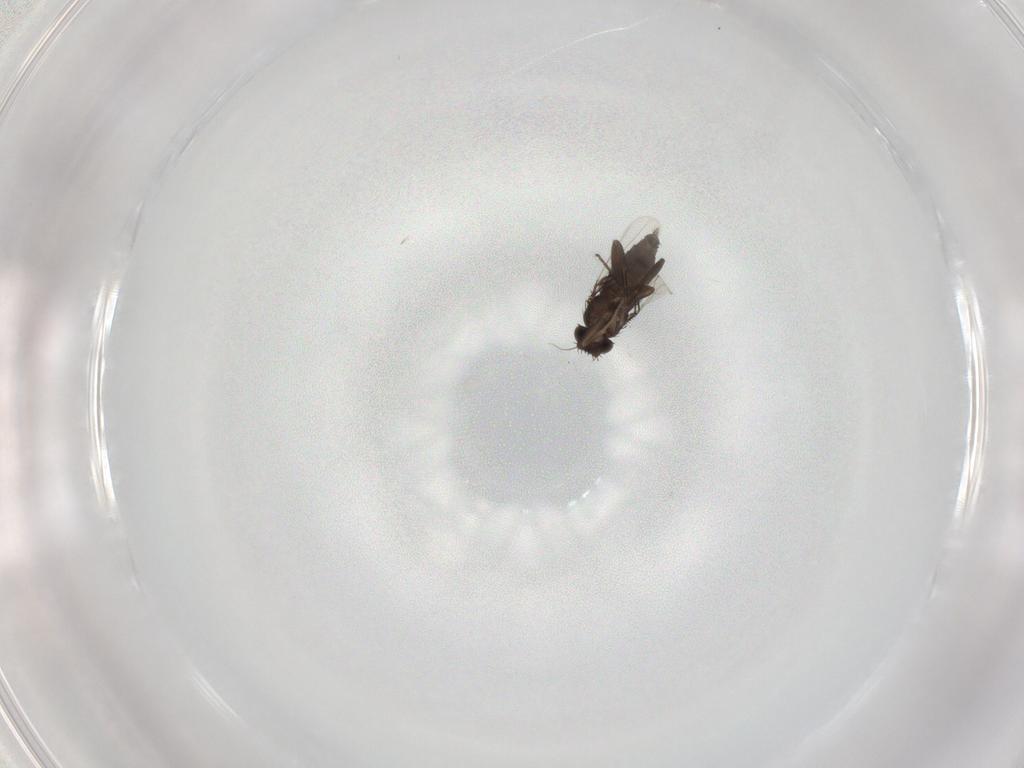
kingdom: Animalia
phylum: Arthropoda
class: Insecta
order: Diptera
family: Phoridae
